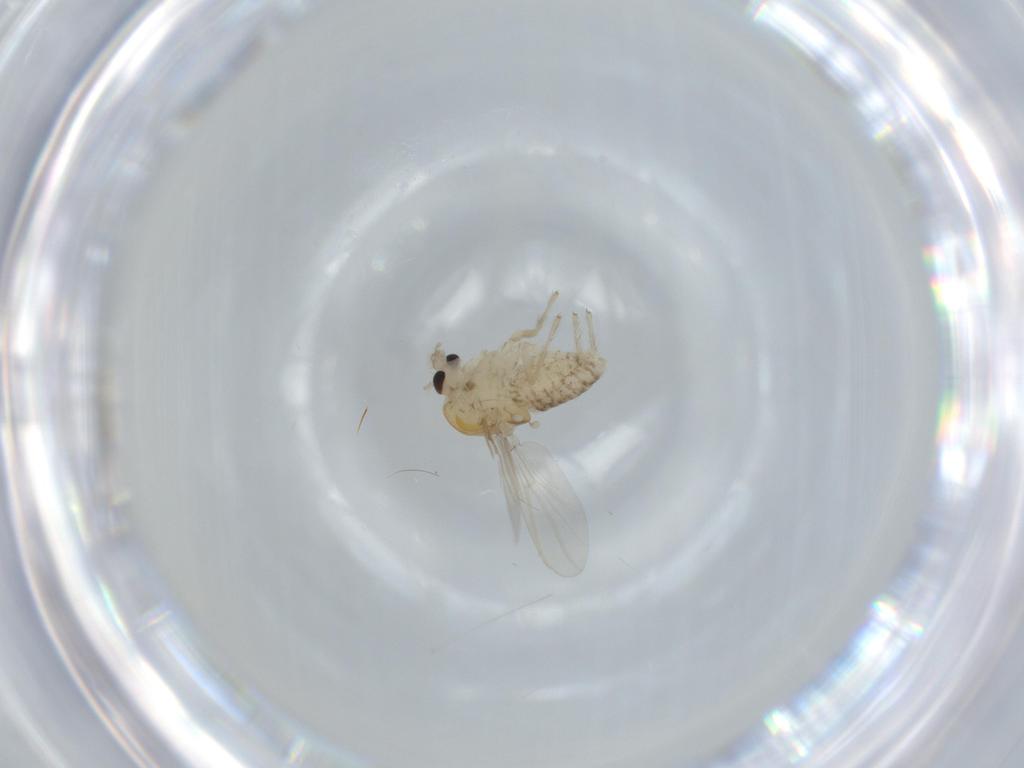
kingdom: Animalia
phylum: Arthropoda
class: Insecta
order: Diptera
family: Chironomidae
